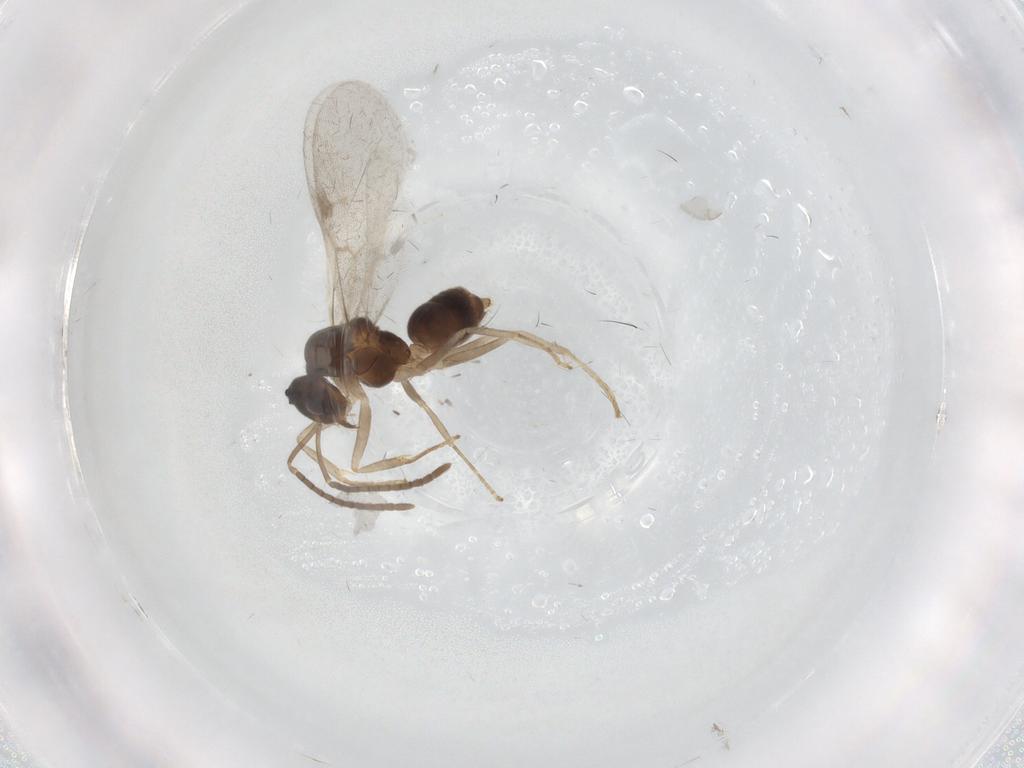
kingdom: Animalia
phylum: Arthropoda
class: Insecta
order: Hymenoptera
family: Formicidae
